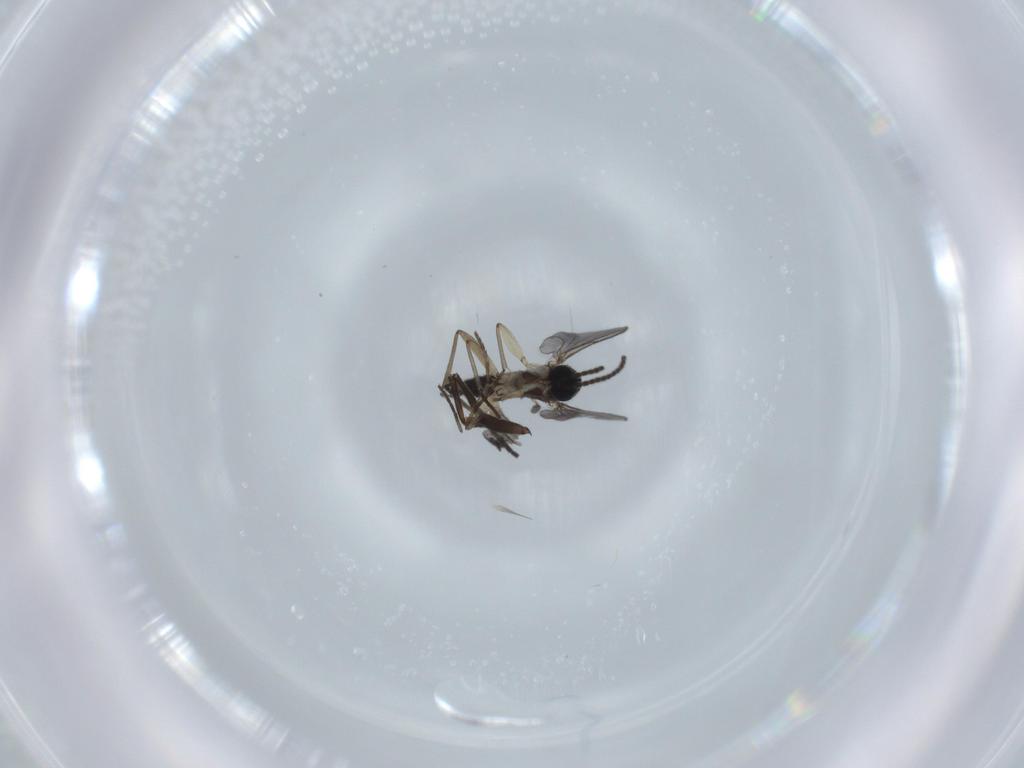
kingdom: Animalia
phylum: Arthropoda
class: Insecta
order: Diptera
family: Sciaridae
